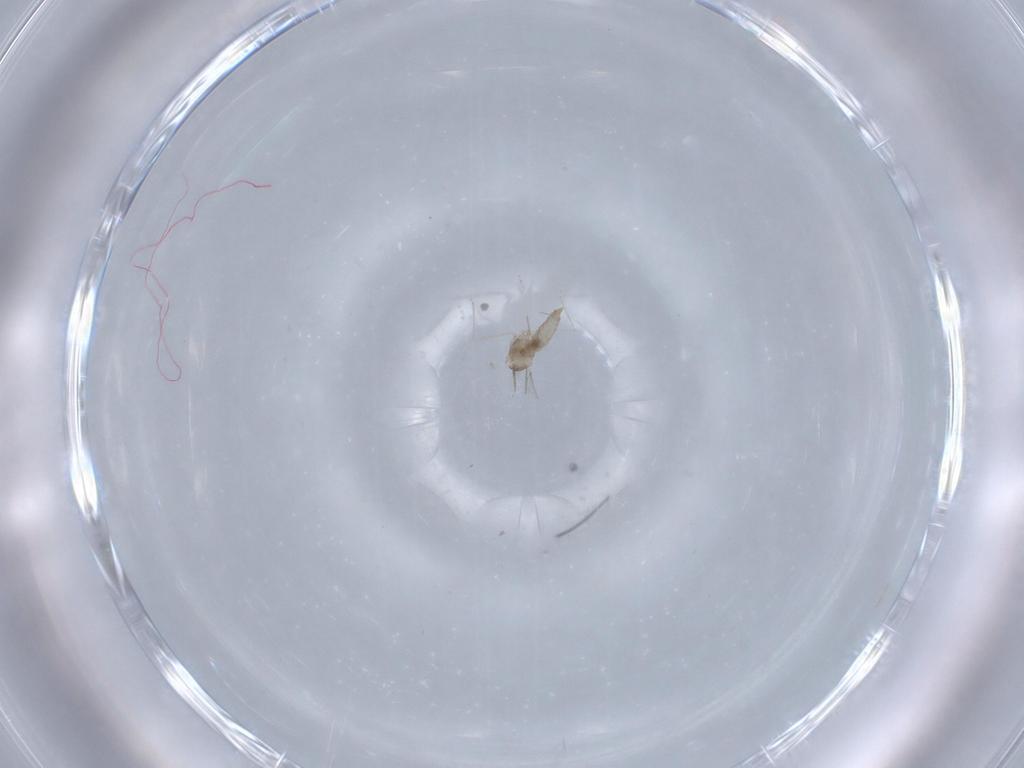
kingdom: Animalia
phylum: Arthropoda
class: Insecta
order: Diptera
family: Cecidomyiidae
